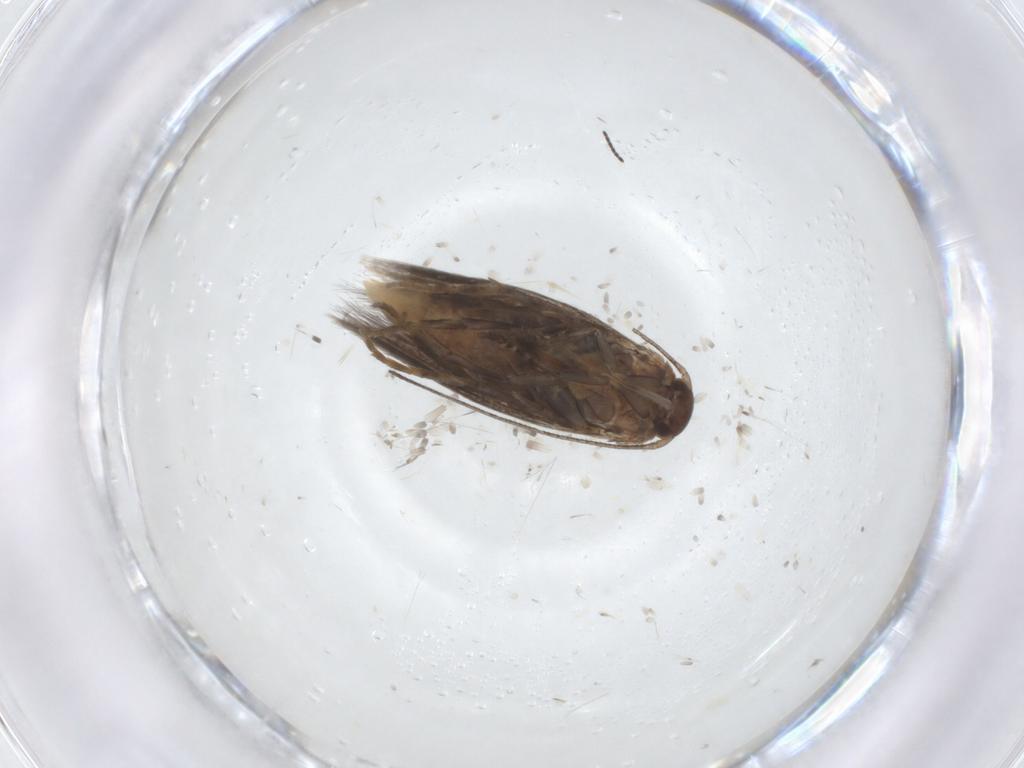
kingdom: Animalia
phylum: Arthropoda
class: Insecta
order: Lepidoptera
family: Elachistidae
